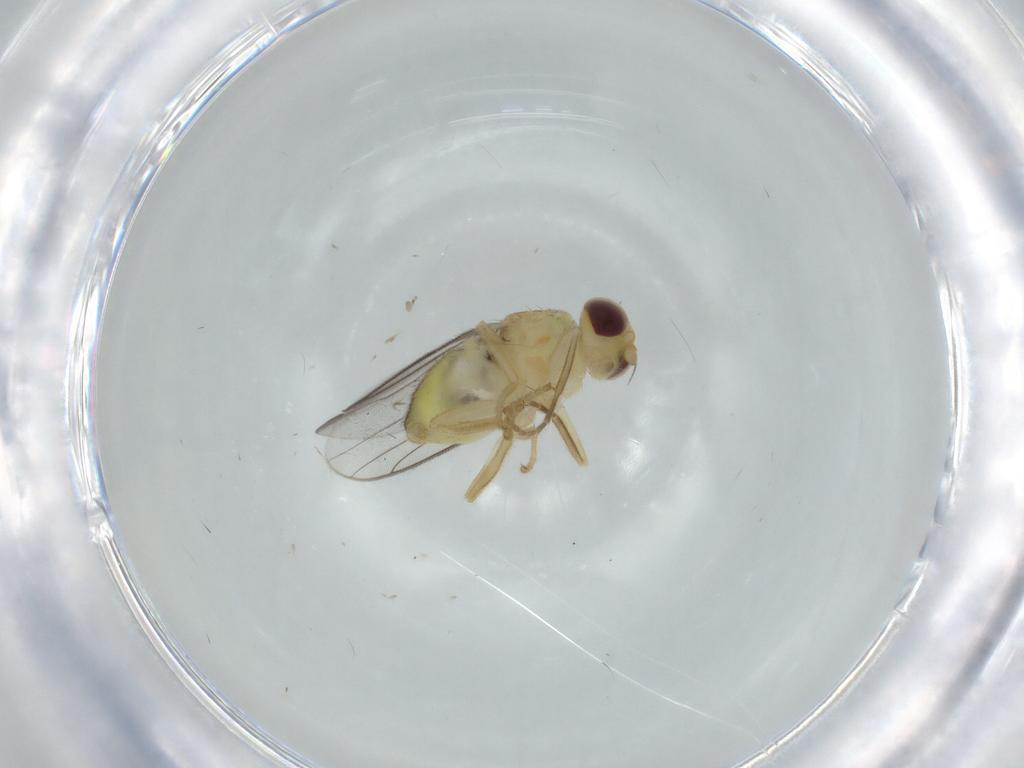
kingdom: Animalia
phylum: Arthropoda
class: Insecta
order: Diptera
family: Chloropidae
